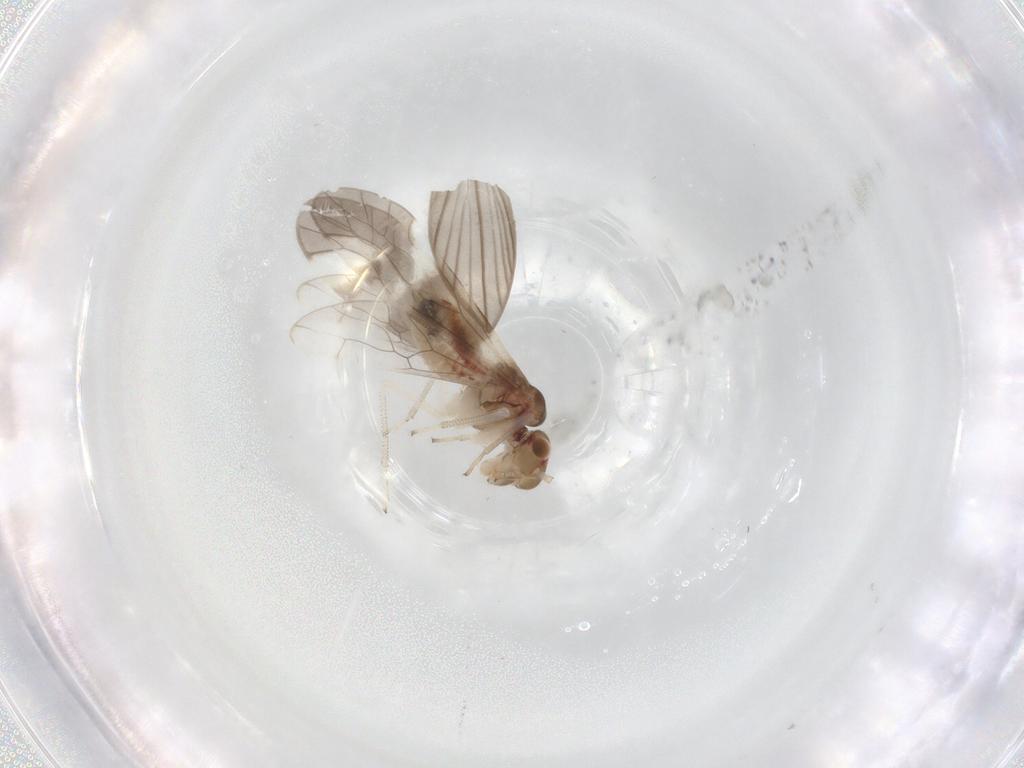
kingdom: Animalia
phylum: Arthropoda
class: Insecta
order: Psocodea
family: Archipsocidae
